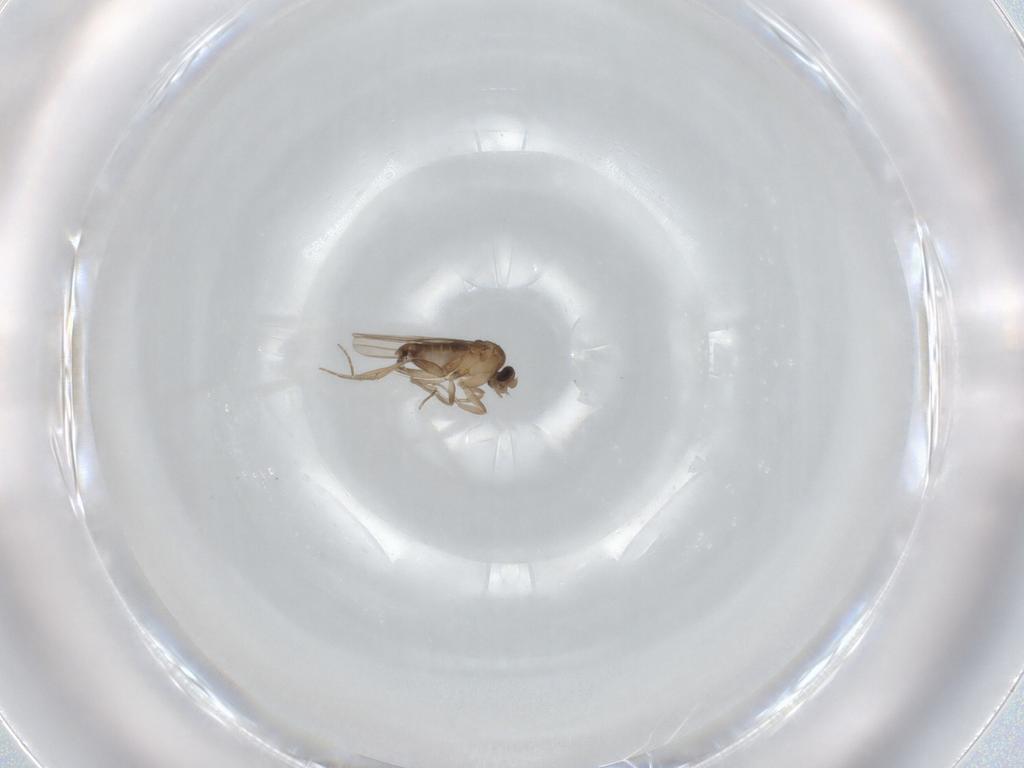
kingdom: Animalia
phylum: Arthropoda
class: Insecta
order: Diptera
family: Phoridae
